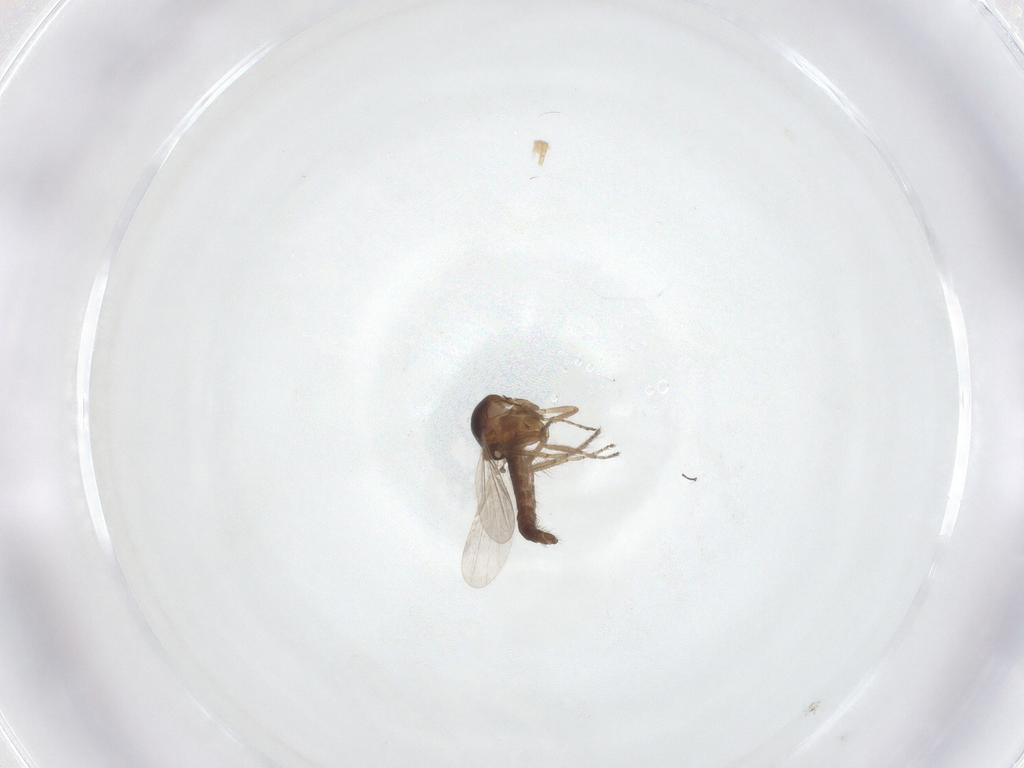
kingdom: Animalia
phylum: Arthropoda
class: Insecta
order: Diptera
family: Ceratopogonidae
